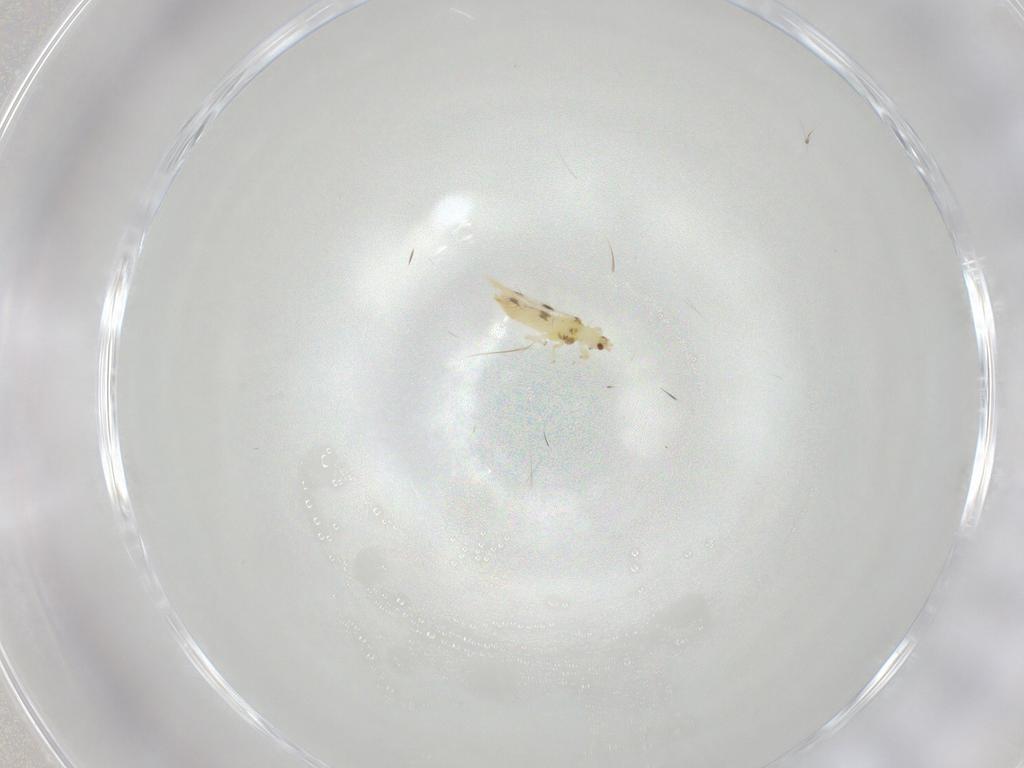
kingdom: Animalia
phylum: Arthropoda
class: Insecta
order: Thysanoptera
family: Thripidae
